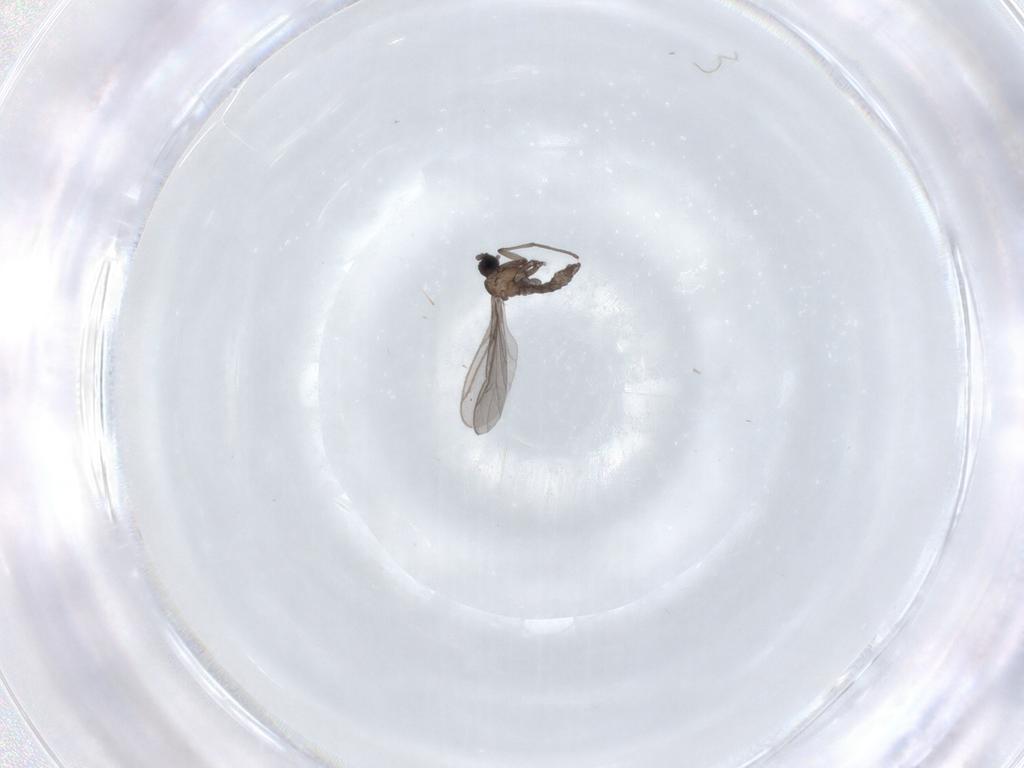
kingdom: Animalia
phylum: Arthropoda
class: Insecta
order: Diptera
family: Sciaridae
